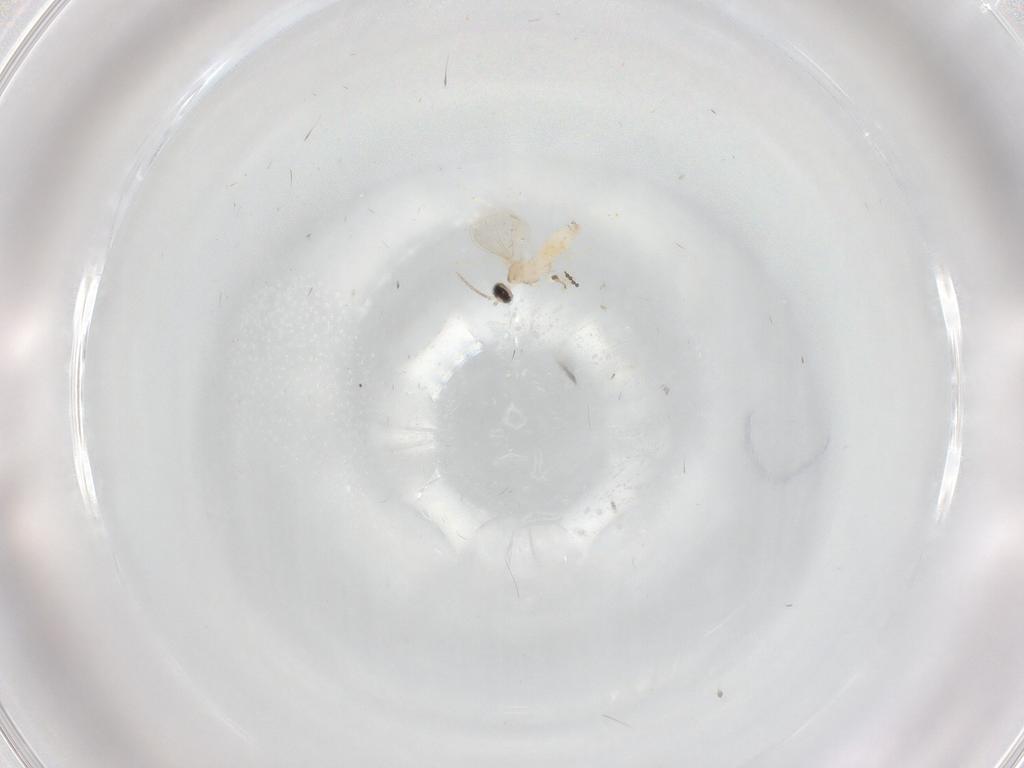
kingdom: Animalia
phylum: Arthropoda
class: Insecta
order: Diptera
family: Cecidomyiidae
